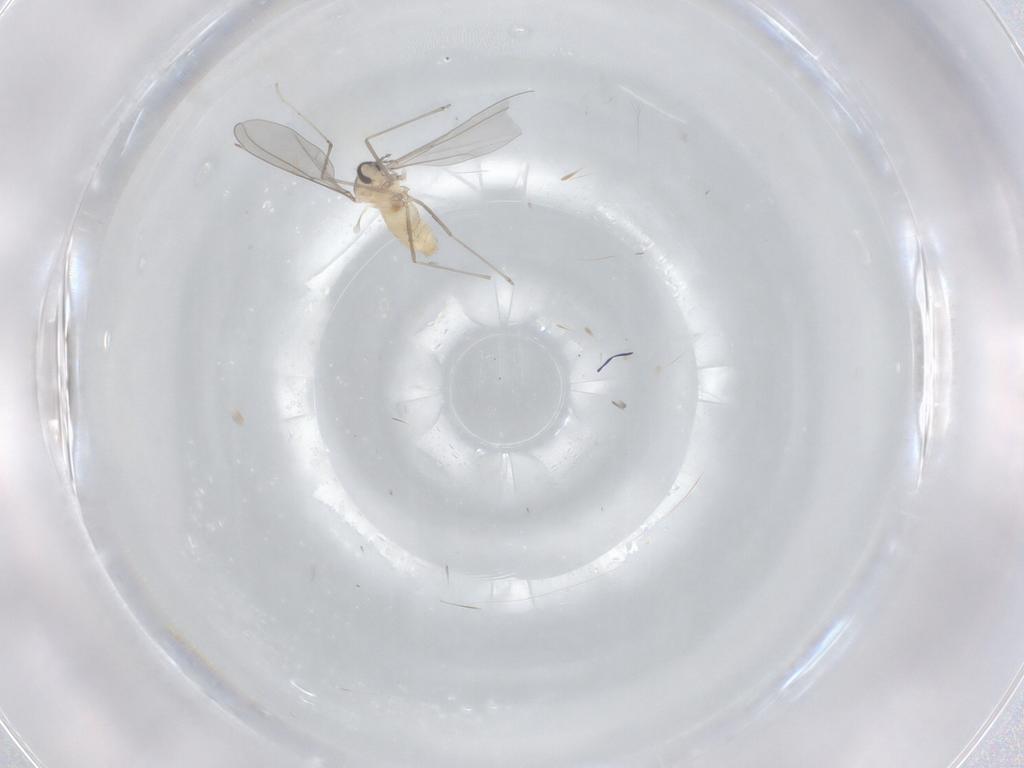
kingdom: Animalia
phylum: Arthropoda
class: Insecta
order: Diptera
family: Cecidomyiidae
